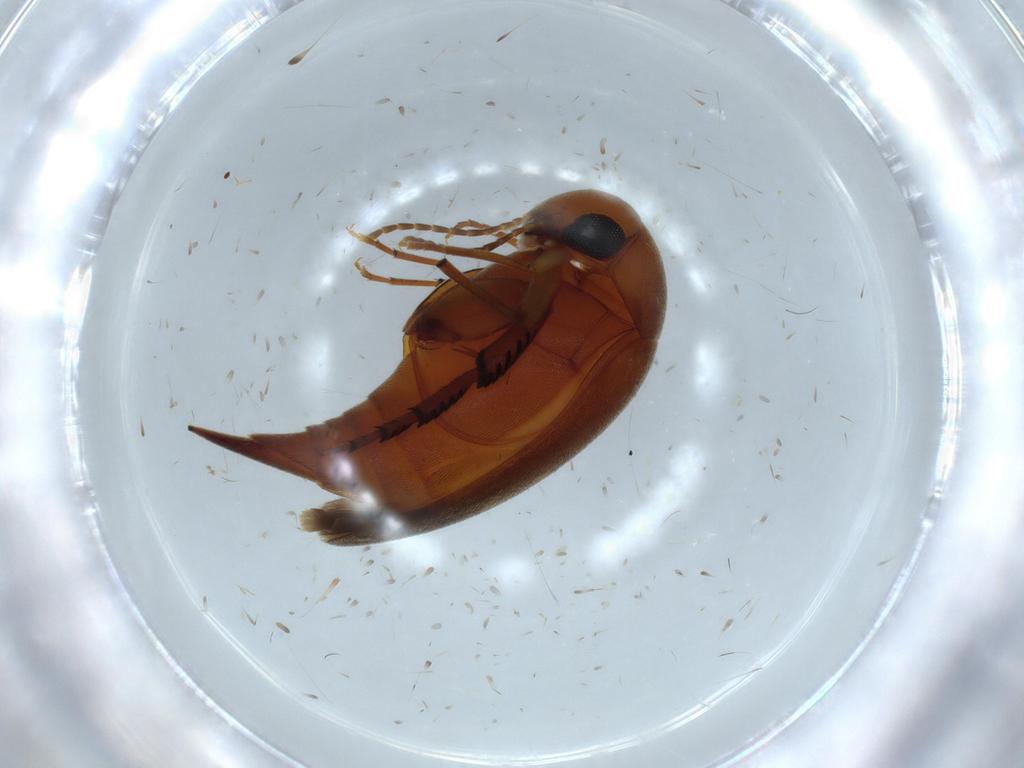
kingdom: Animalia
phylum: Arthropoda
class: Insecta
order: Coleoptera
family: Mordellidae
